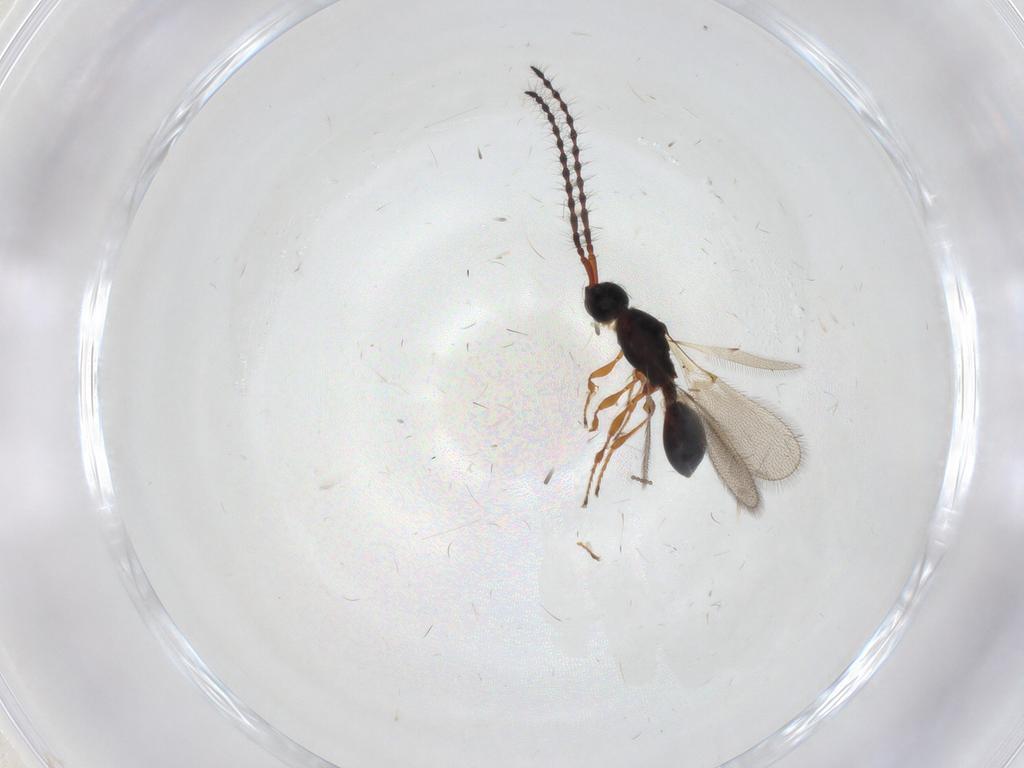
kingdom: Animalia
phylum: Arthropoda
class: Insecta
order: Hymenoptera
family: Diapriidae
